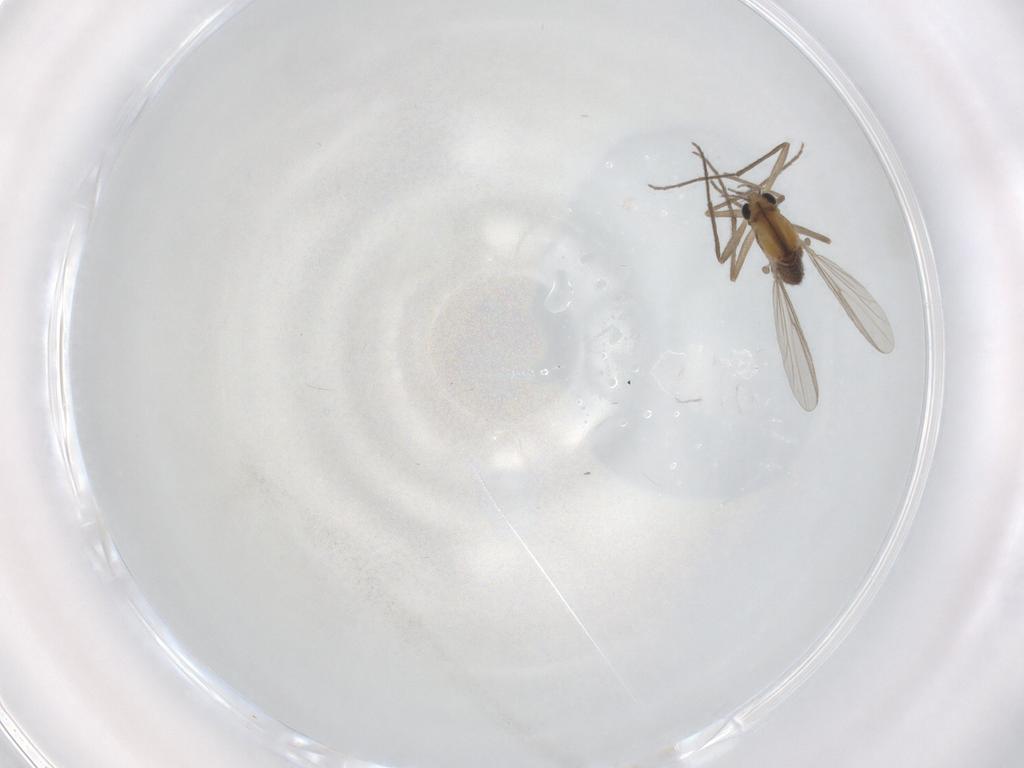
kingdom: Animalia
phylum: Arthropoda
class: Insecta
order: Diptera
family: Chironomidae
